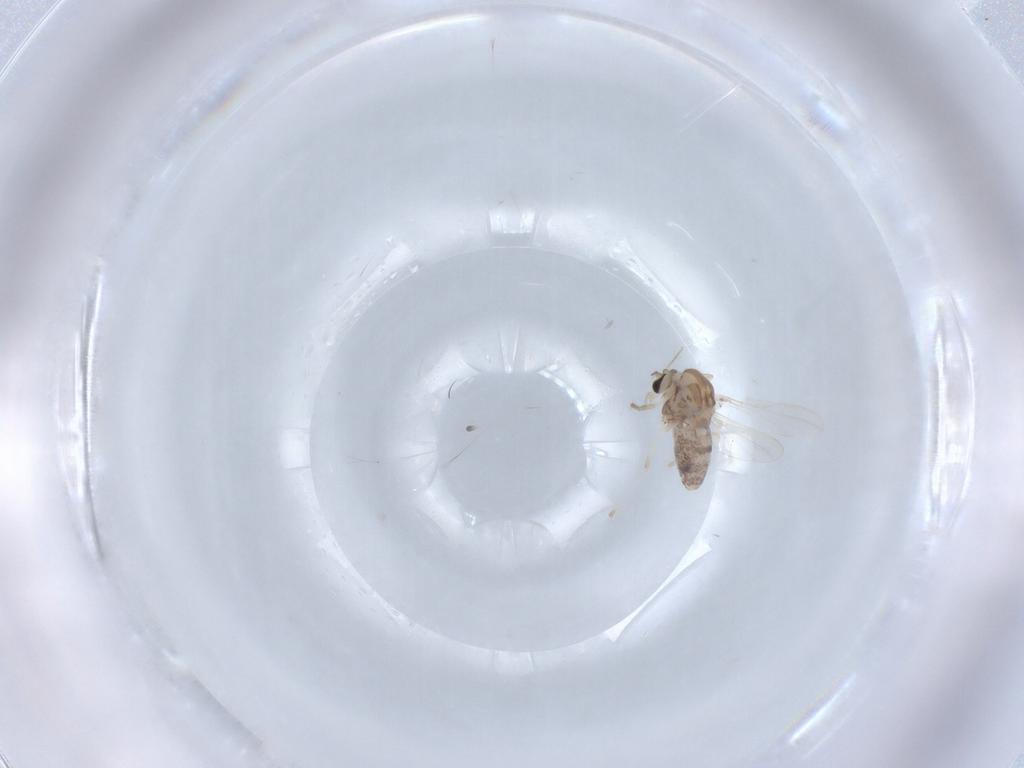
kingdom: Animalia
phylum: Arthropoda
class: Insecta
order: Diptera
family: Chironomidae
